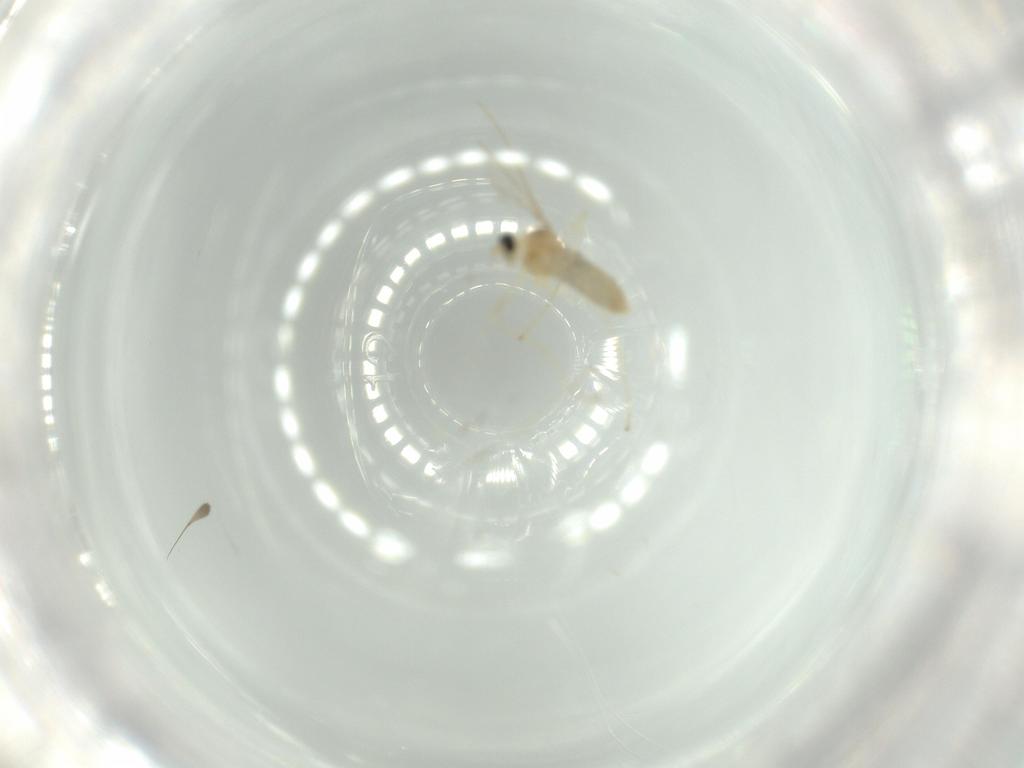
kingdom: Animalia
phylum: Arthropoda
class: Insecta
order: Diptera
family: Cecidomyiidae
